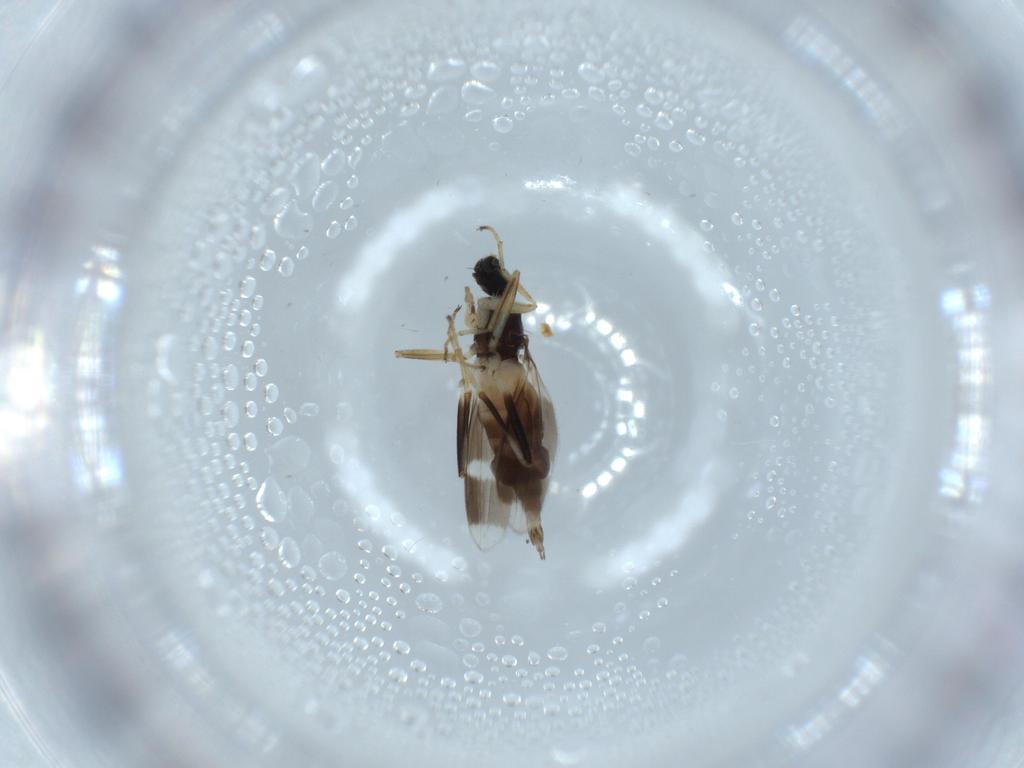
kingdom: Animalia
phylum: Arthropoda
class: Insecta
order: Diptera
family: Hybotidae
